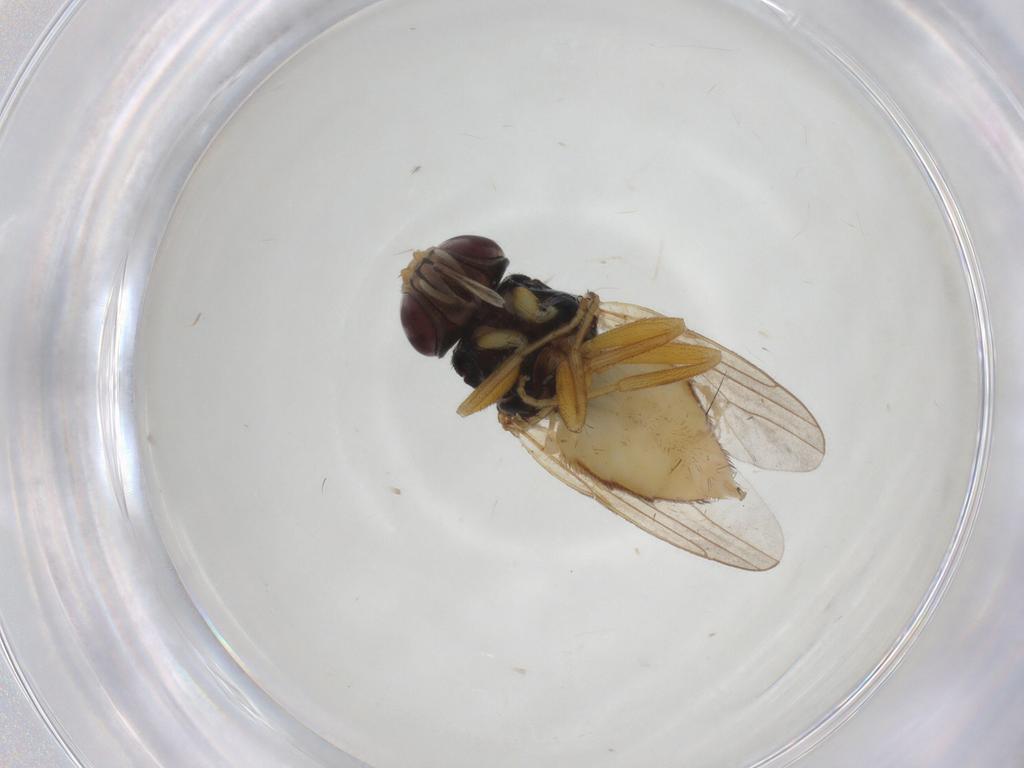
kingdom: Animalia
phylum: Arthropoda
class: Insecta
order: Diptera
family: Chloropidae
